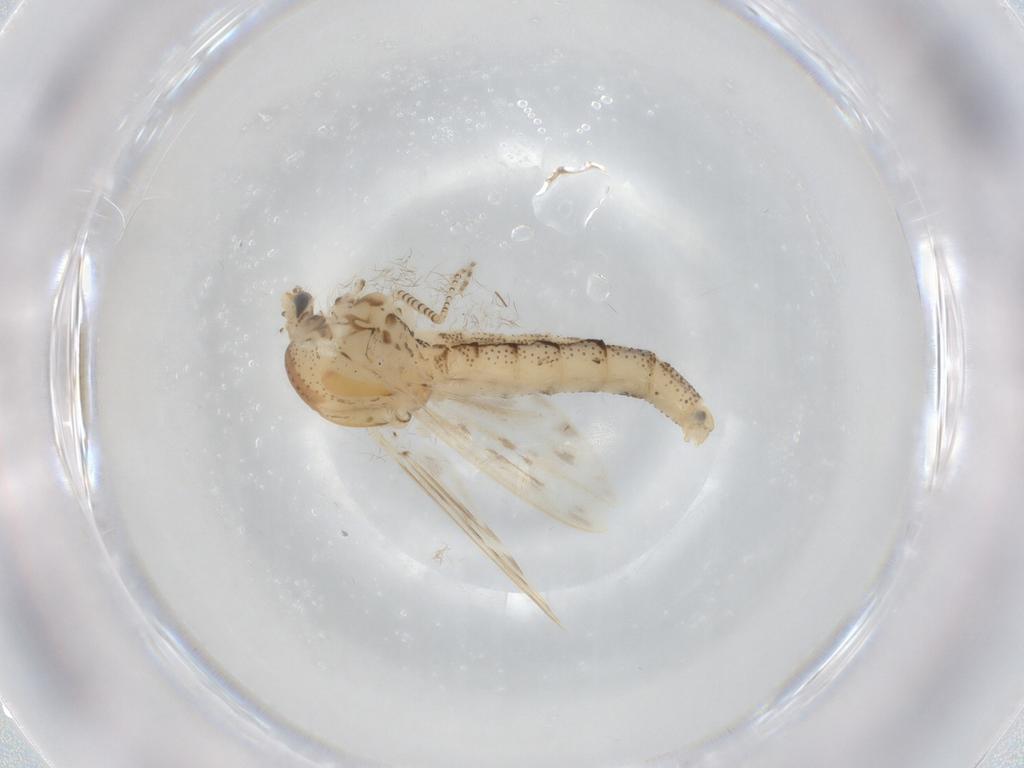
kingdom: Animalia
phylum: Arthropoda
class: Insecta
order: Diptera
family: Chaoboridae
